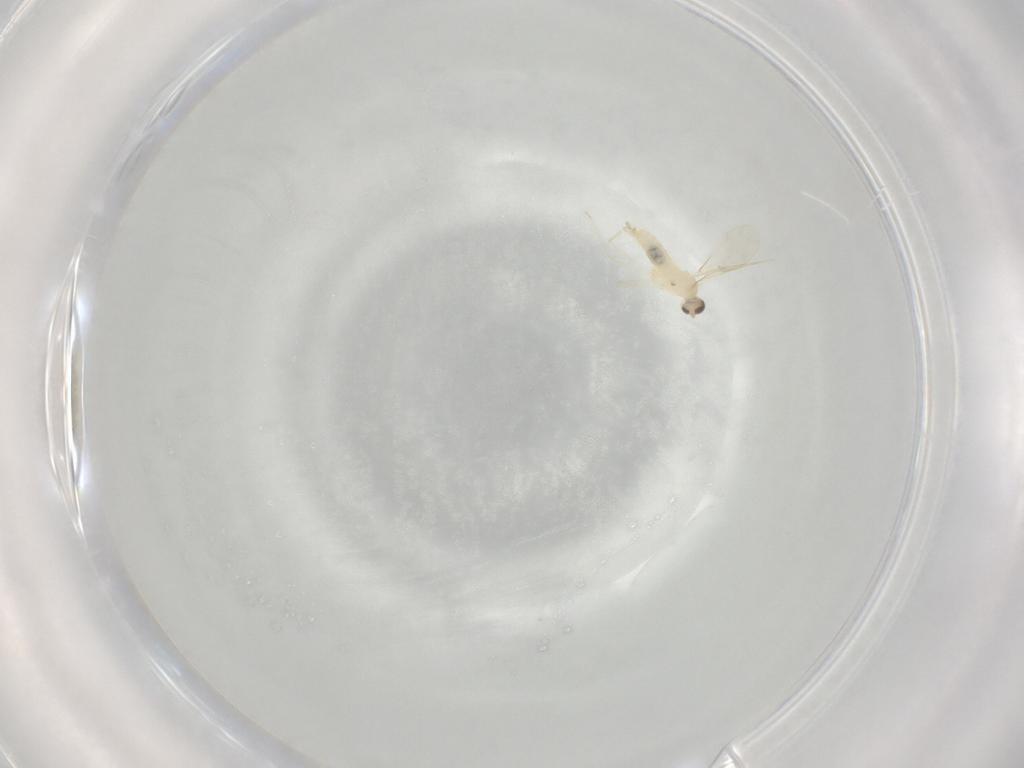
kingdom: Animalia
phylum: Arthropoda
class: Insecta
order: Diptera
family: Cecidomyiidae
